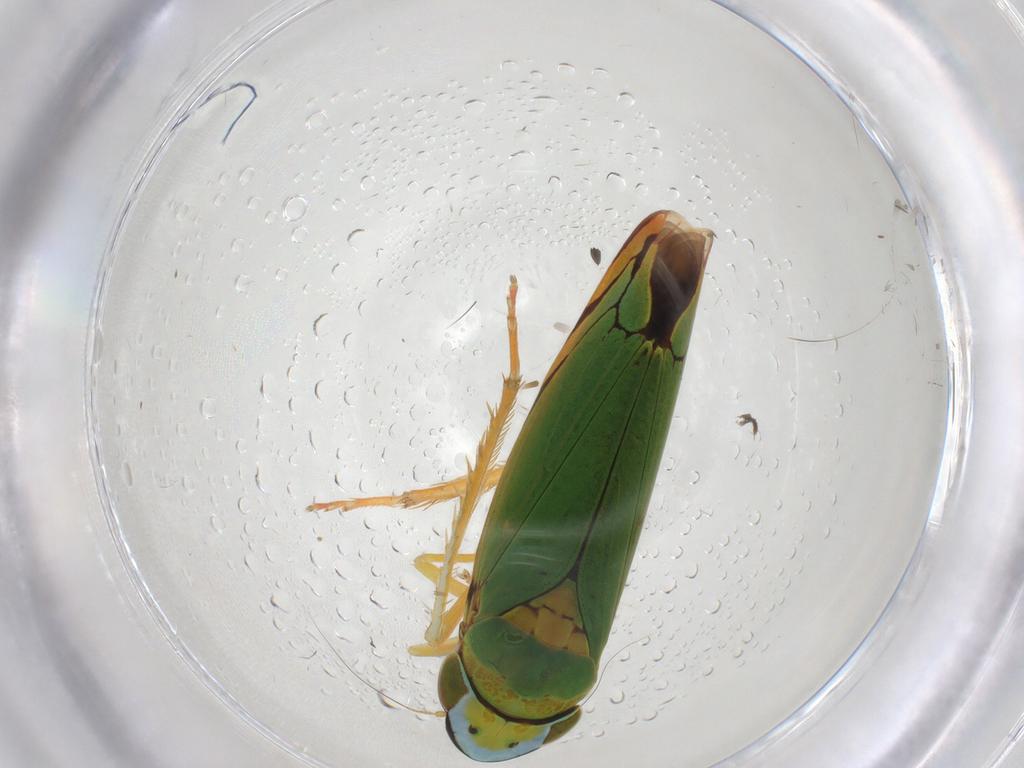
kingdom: Animalia
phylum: Arthropoda
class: Insecta
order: Hemiptera
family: Cicadellidae
